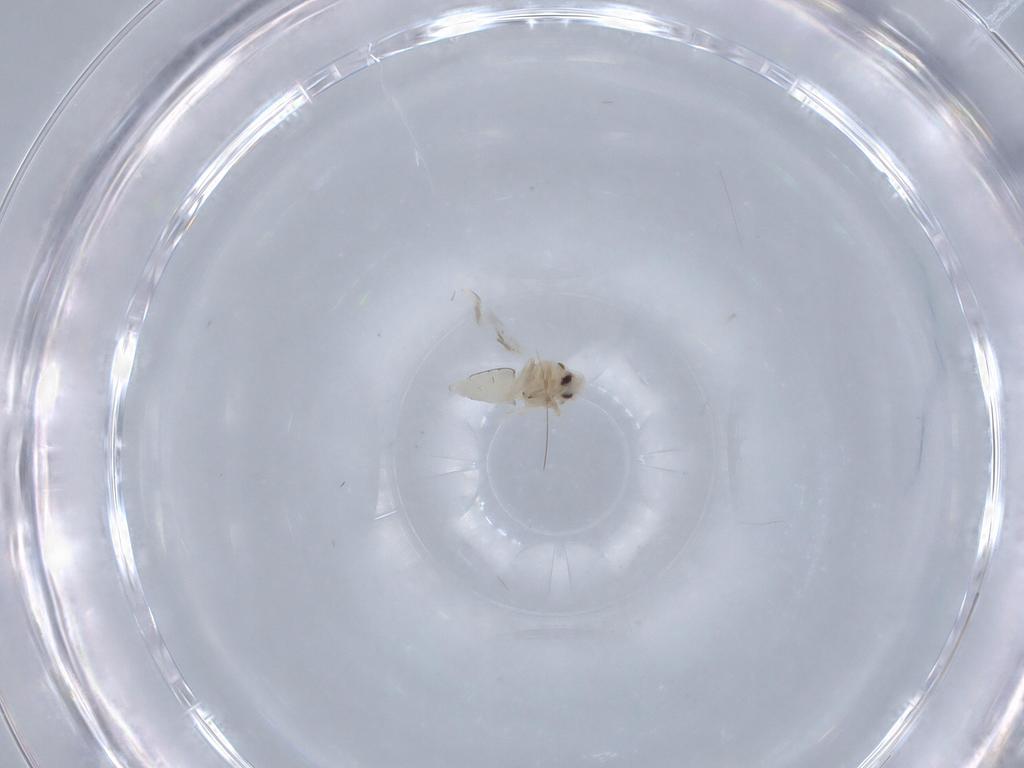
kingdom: Animalia
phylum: Arthropoda
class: Insecta
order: Hemiptera
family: Aleyrodidae
